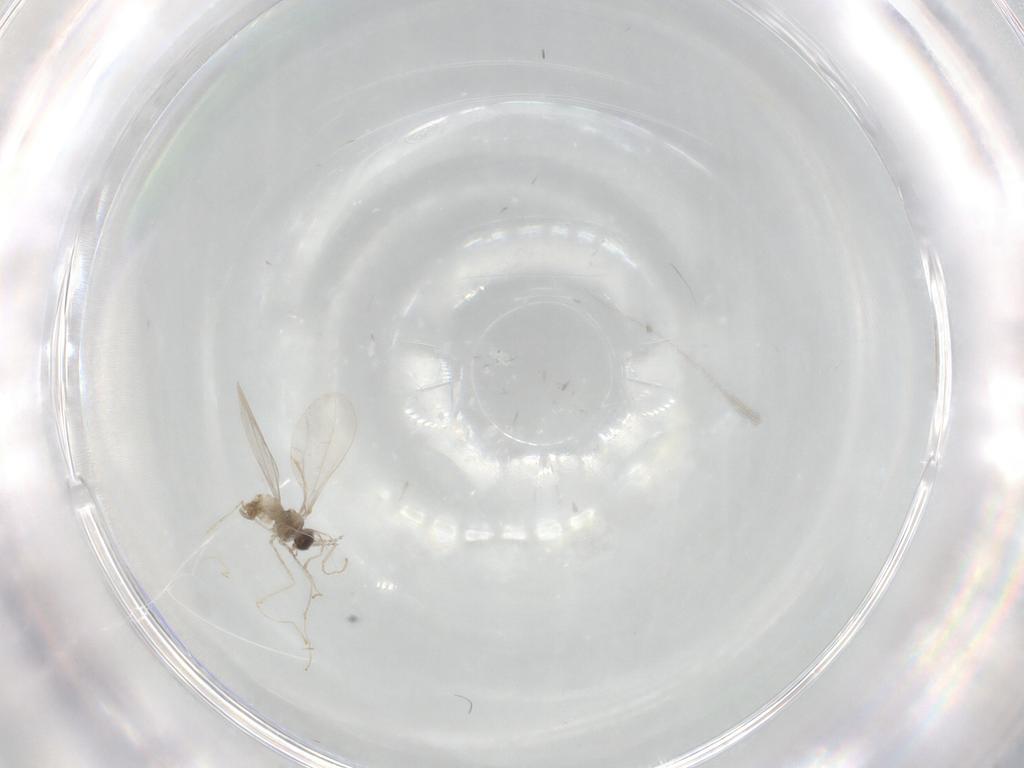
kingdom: Animalia
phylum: Arthropoda
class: Insecta
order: Diptera
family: Cecidomyiidae
